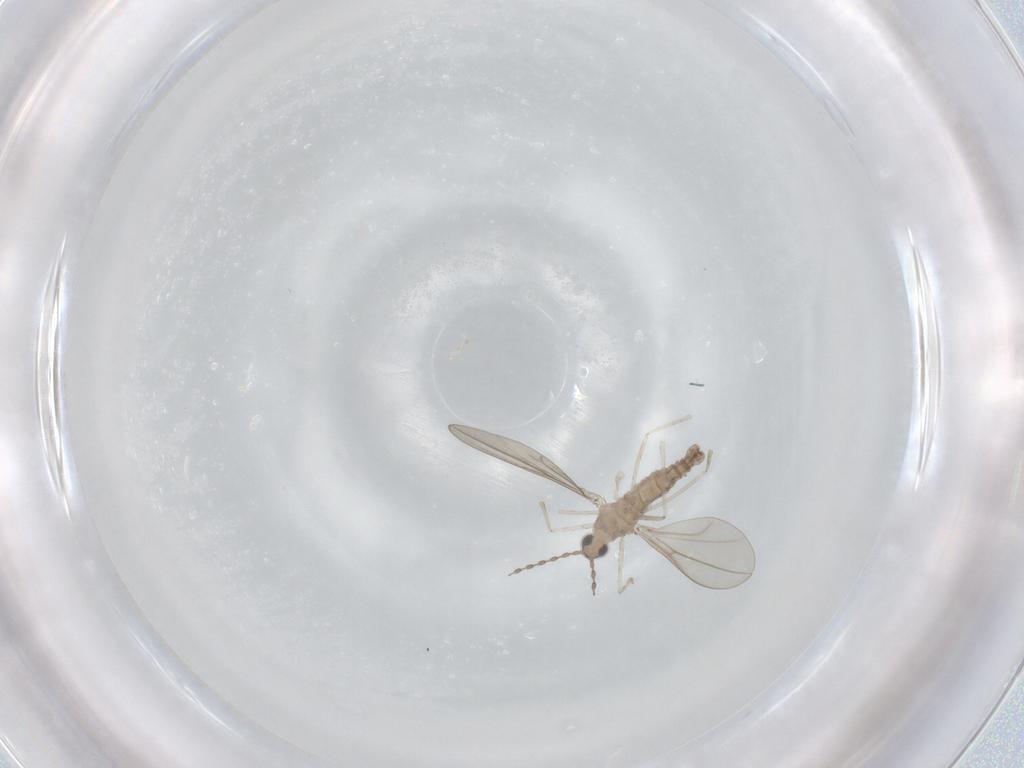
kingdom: Animalia
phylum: Arthropoda
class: Insecta
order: Diptera
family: Cecidomyiidae
